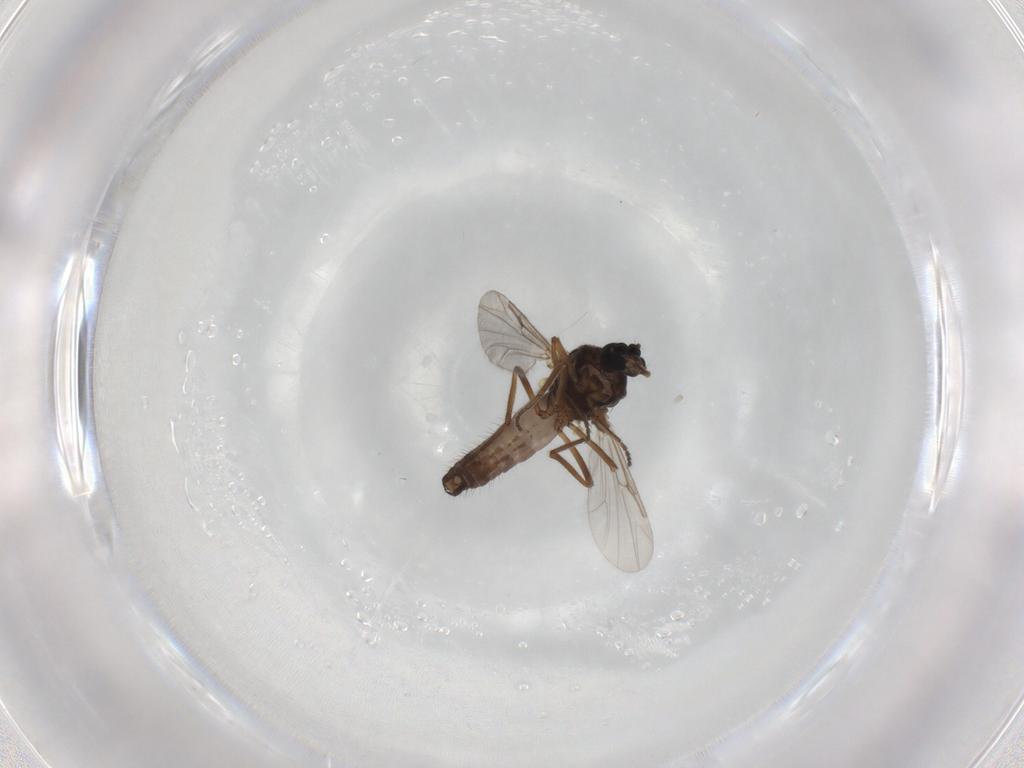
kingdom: Animalia
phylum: Arthropoda
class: Insecta
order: Diptera
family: Ceratopogonidae
